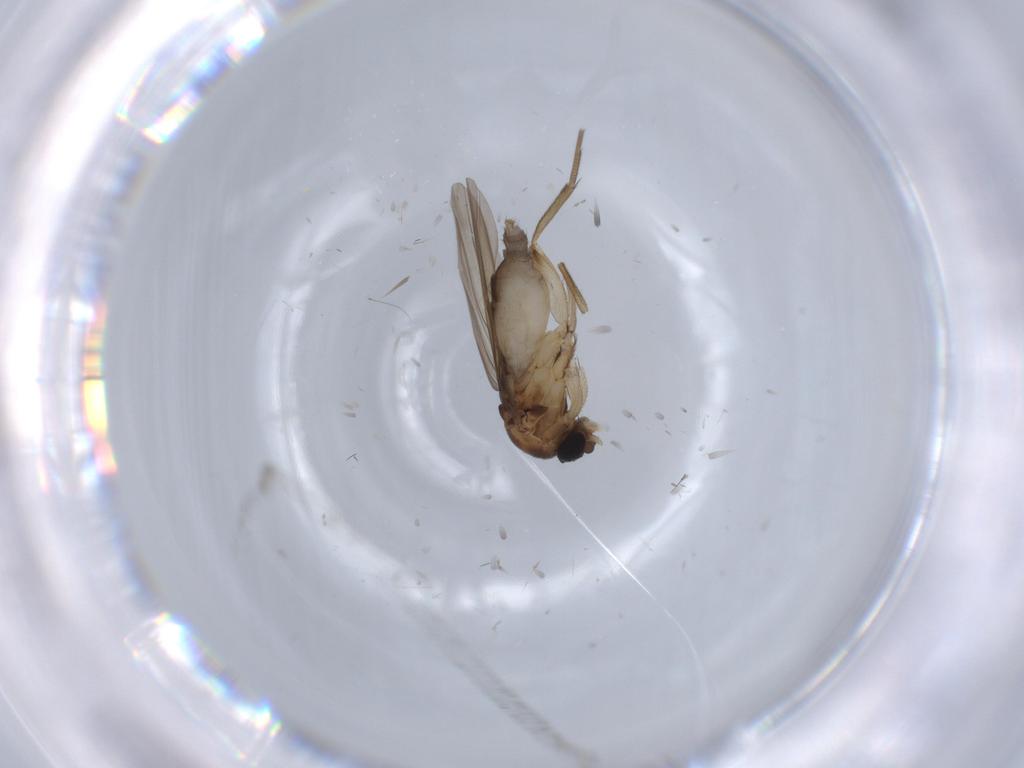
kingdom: Animalia
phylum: Arthropoda
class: Insecta
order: Diptera
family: Phoridae
